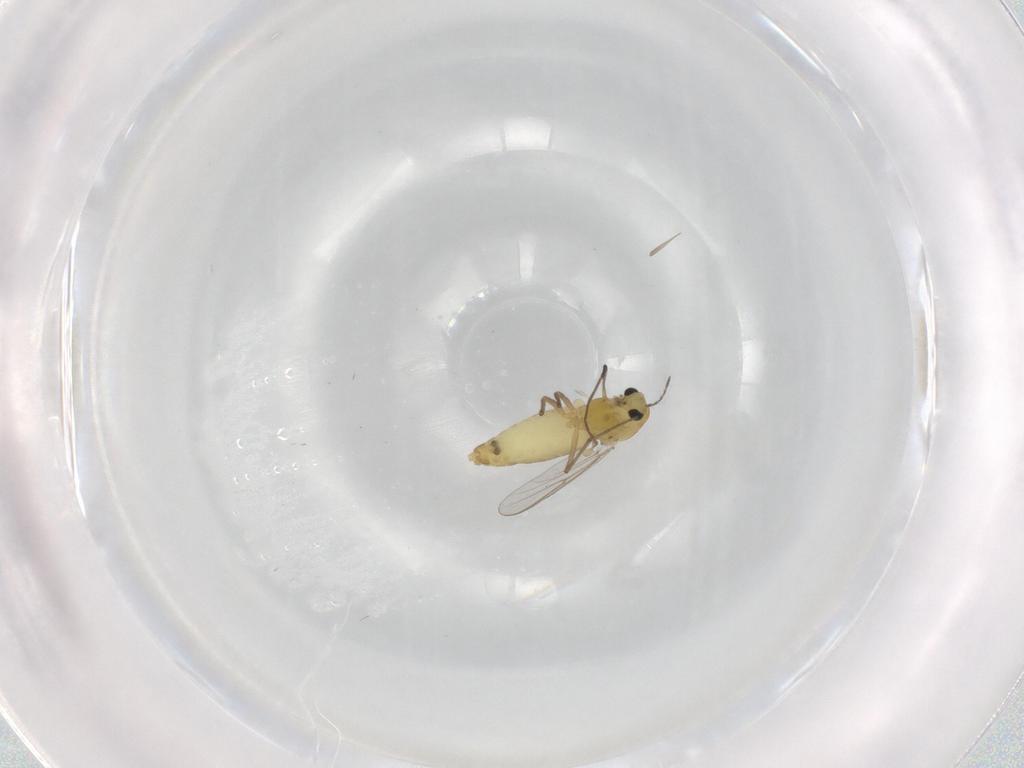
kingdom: Animalia
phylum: Arthropoda
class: Insecta
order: Diptera
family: Chironomidae
